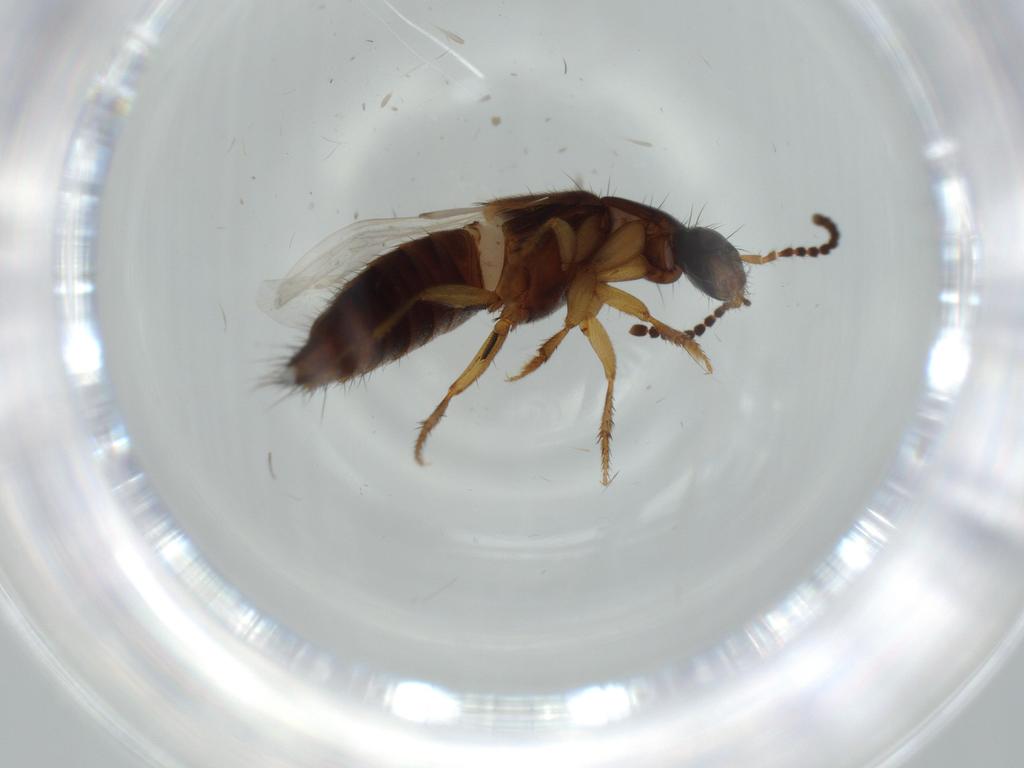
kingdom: Animalia
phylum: Arthropoda
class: Insecta
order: Coleoptera
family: Staphylinidae
